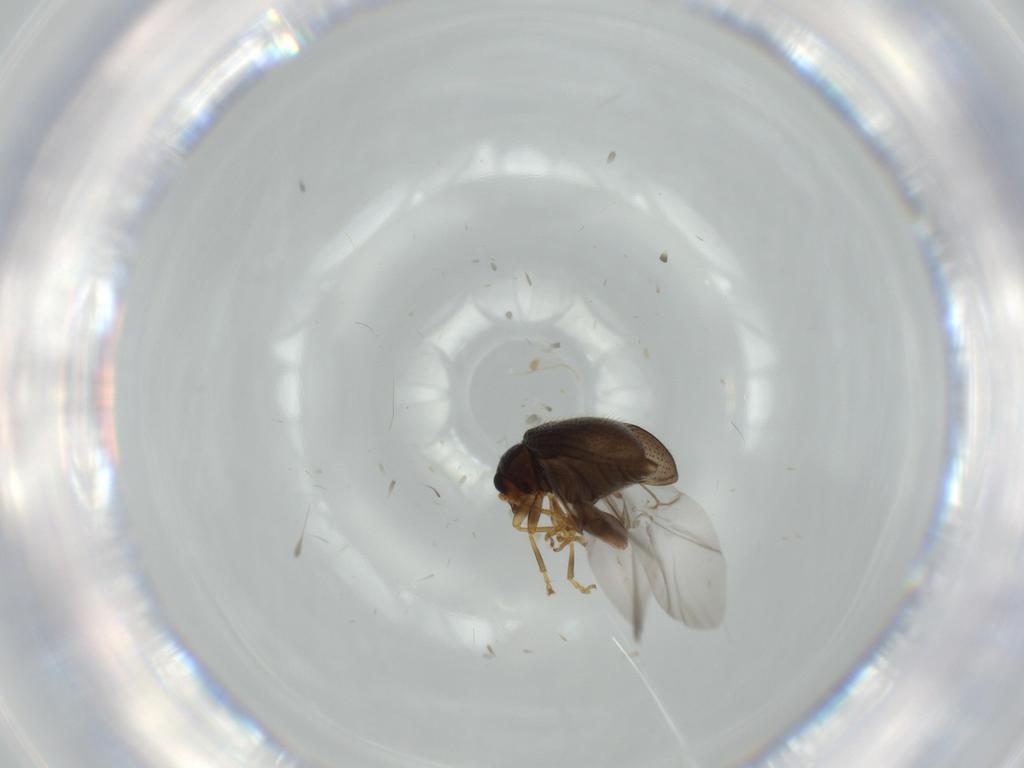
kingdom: Animalia
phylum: Arthropoda
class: Insecta
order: Coleoptera
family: Chrysomelidae
